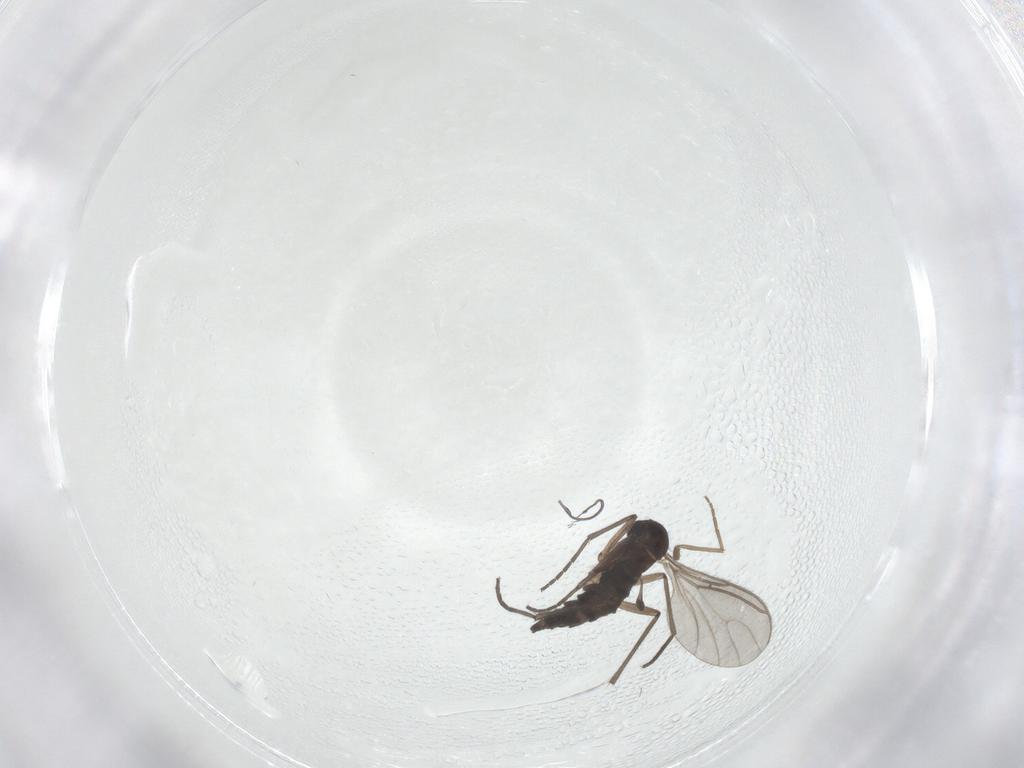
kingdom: Animalia
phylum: Arthropoda
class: Insecta
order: Diptera
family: Chironomidae
